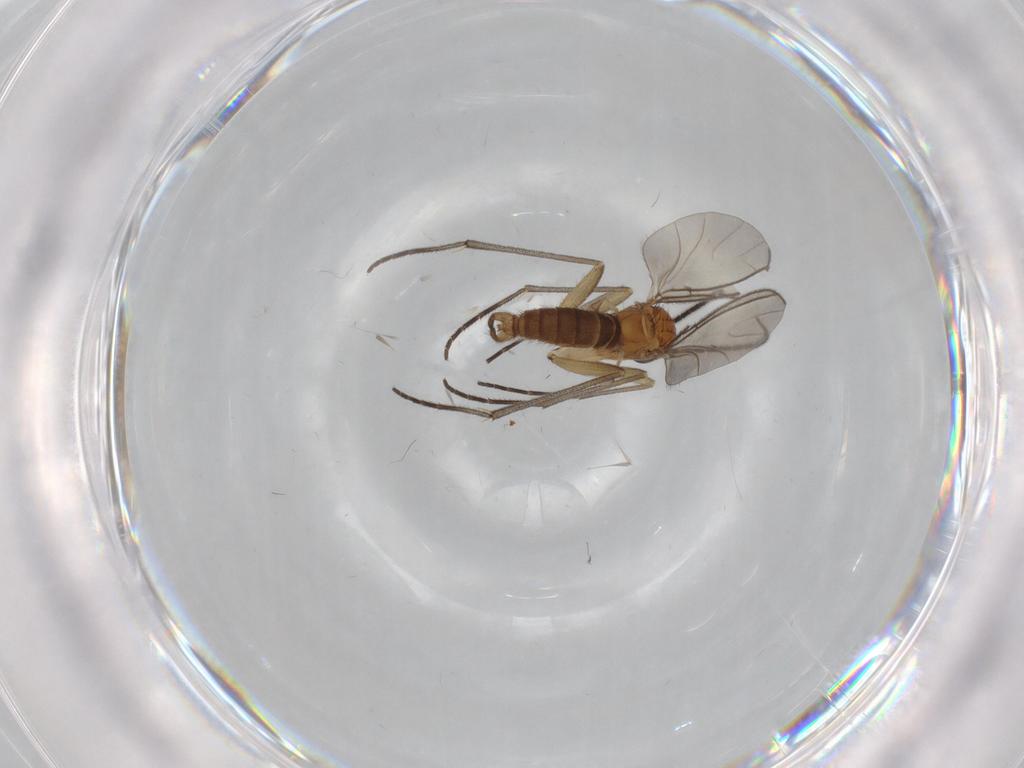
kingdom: Animalia
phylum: Arthropoda
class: Insecta
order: Diptera
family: Sciaridae
